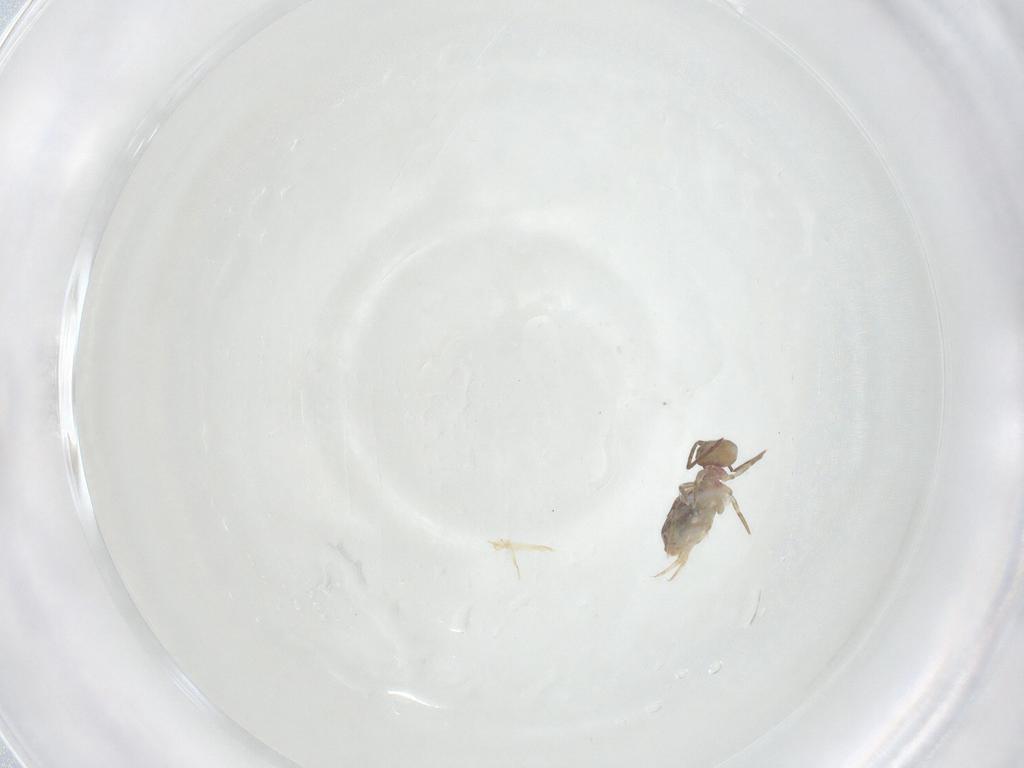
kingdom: Animalia
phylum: Arthropoda
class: Collembola
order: Symphypleona
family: Dicyrtomidae
